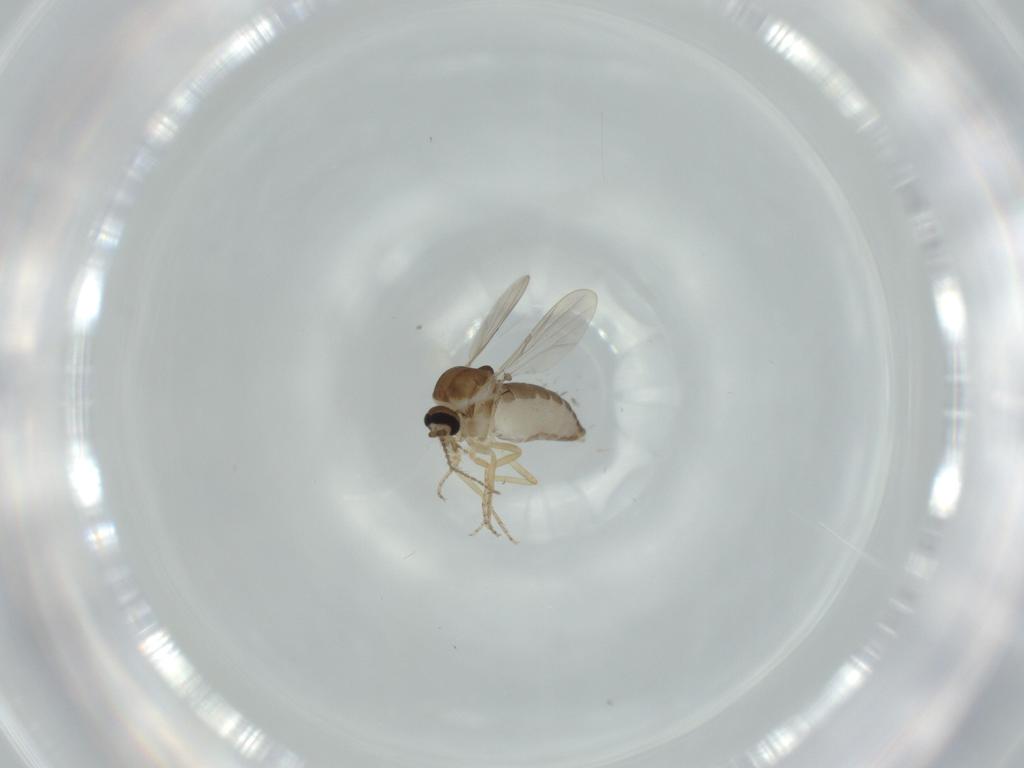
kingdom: Animalia
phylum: Arthropoda
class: Insecta
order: Diptera
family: Ceratopogonidae
